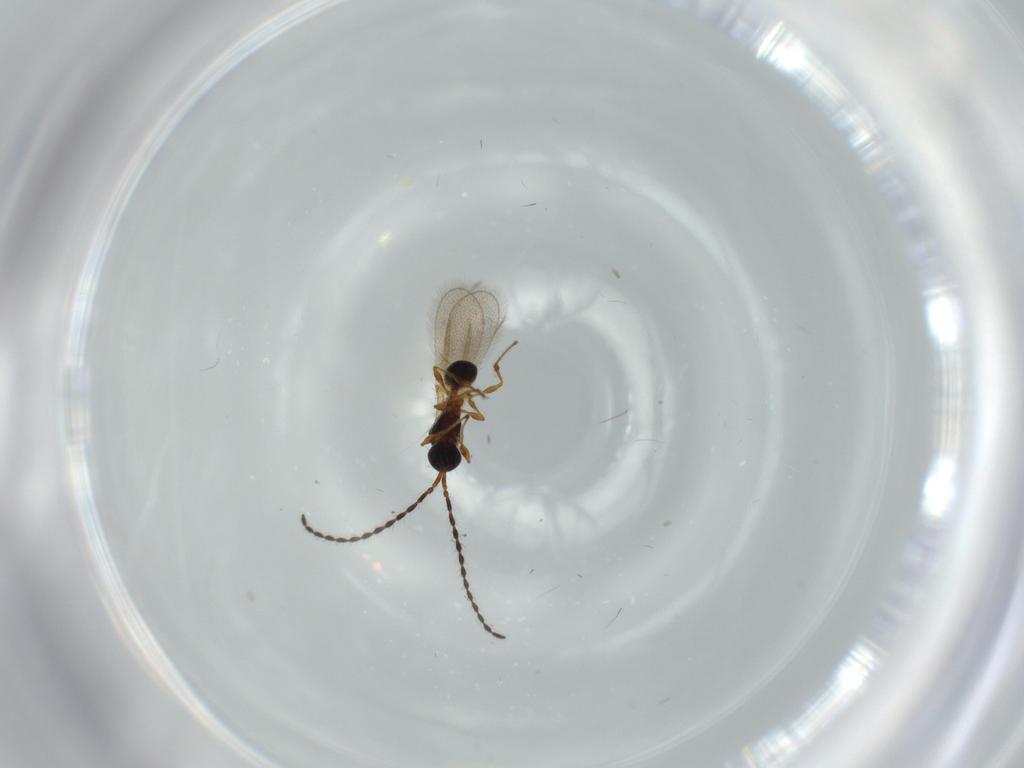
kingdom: Animalia
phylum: Arthropoda
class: Insecta
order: Hymenoptera
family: Diapriidae
